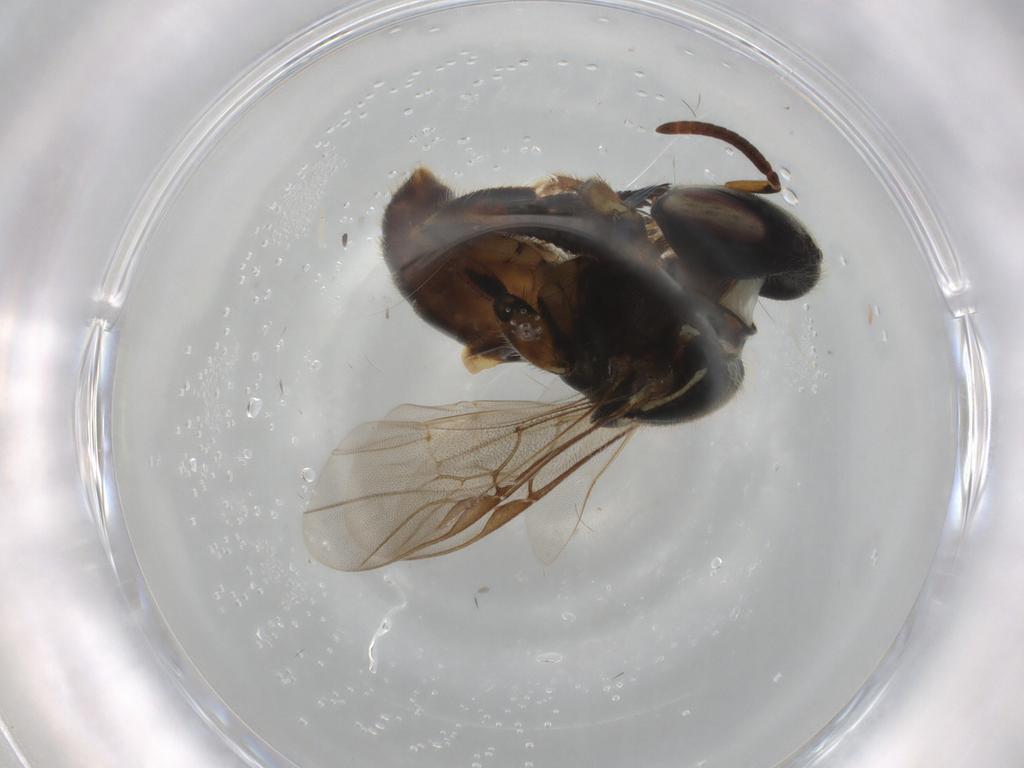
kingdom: Animalia
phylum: Arthropoda
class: Insecta
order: Hymenoptera
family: Apidae
